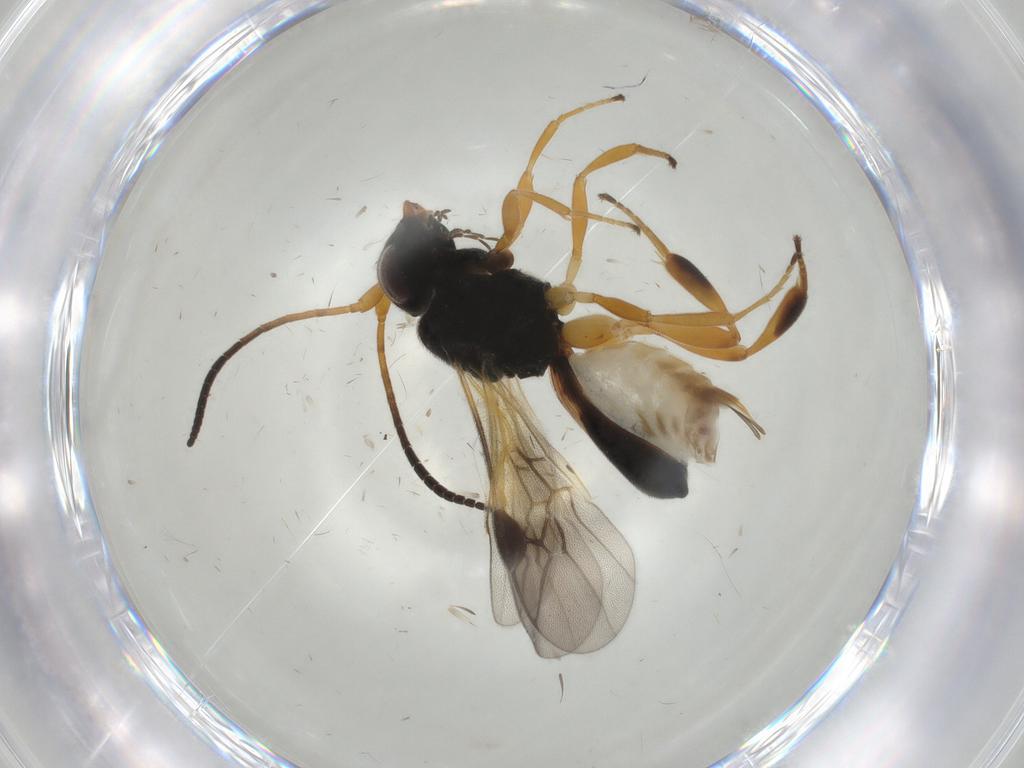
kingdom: Animalia
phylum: Arthropoda
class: Insecta
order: Hymenoptera
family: Braconidae
